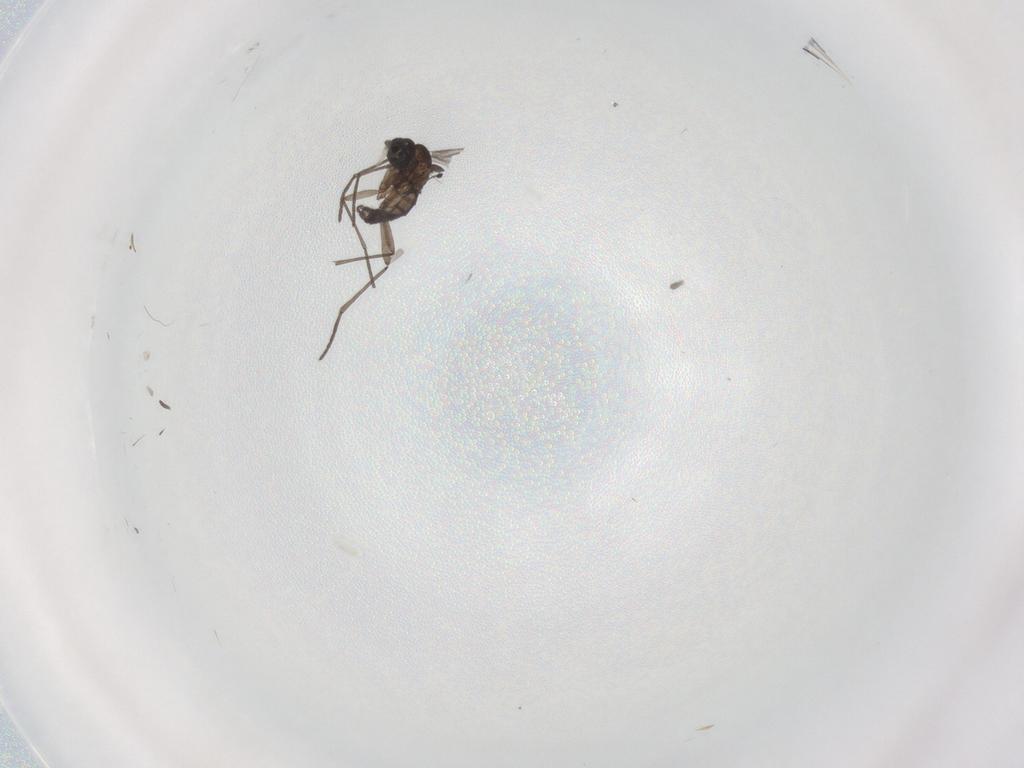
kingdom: Animalia
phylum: Arthropoda
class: Insecta
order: Diptera
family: Sciaridae
